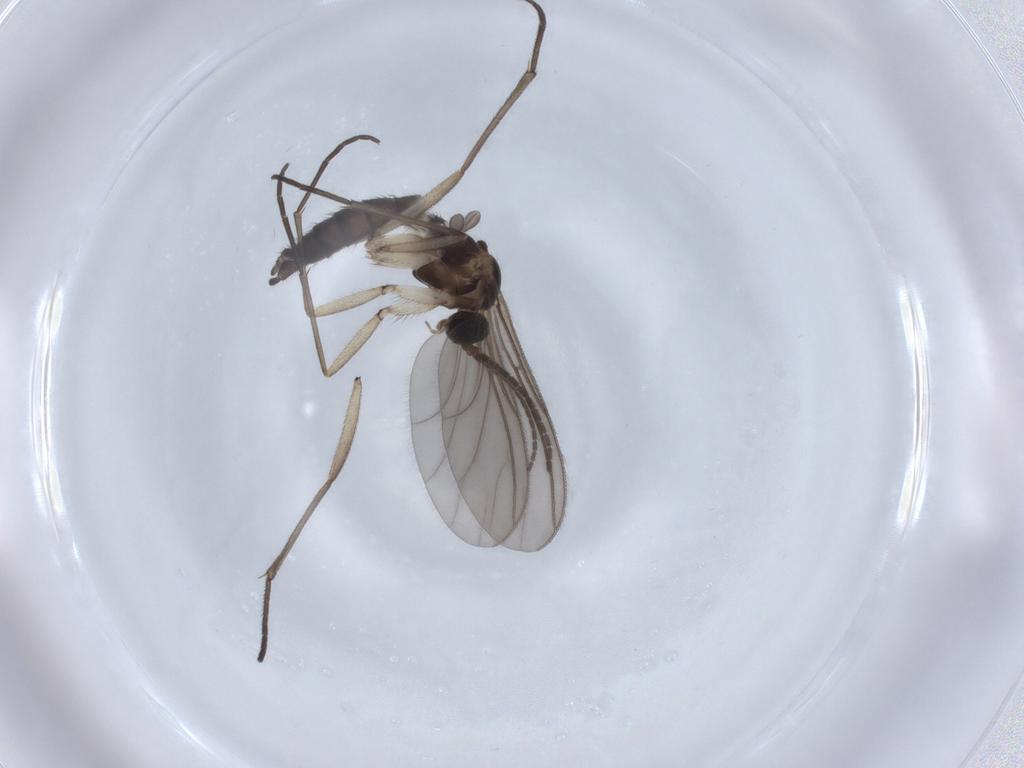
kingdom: Animalia
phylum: Arthropoda
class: Insecta
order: Diptera
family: Sciaridae
